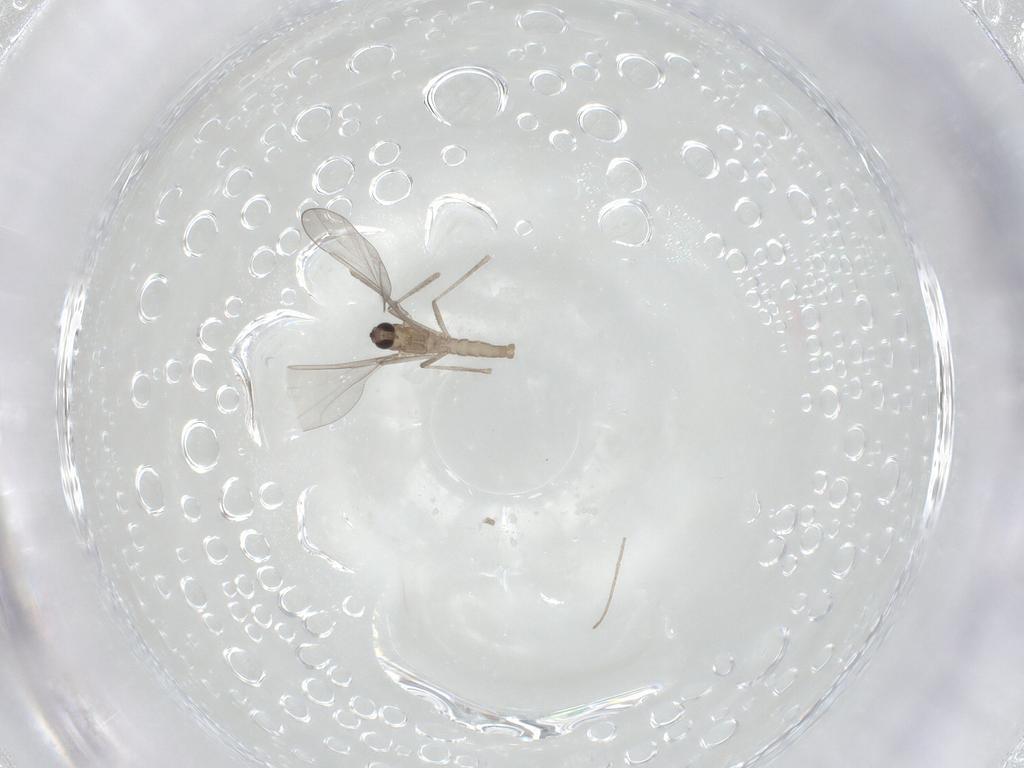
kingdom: Animalia
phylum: Arthropoda
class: Insecta
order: Diptera
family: Cecidomyiidae
